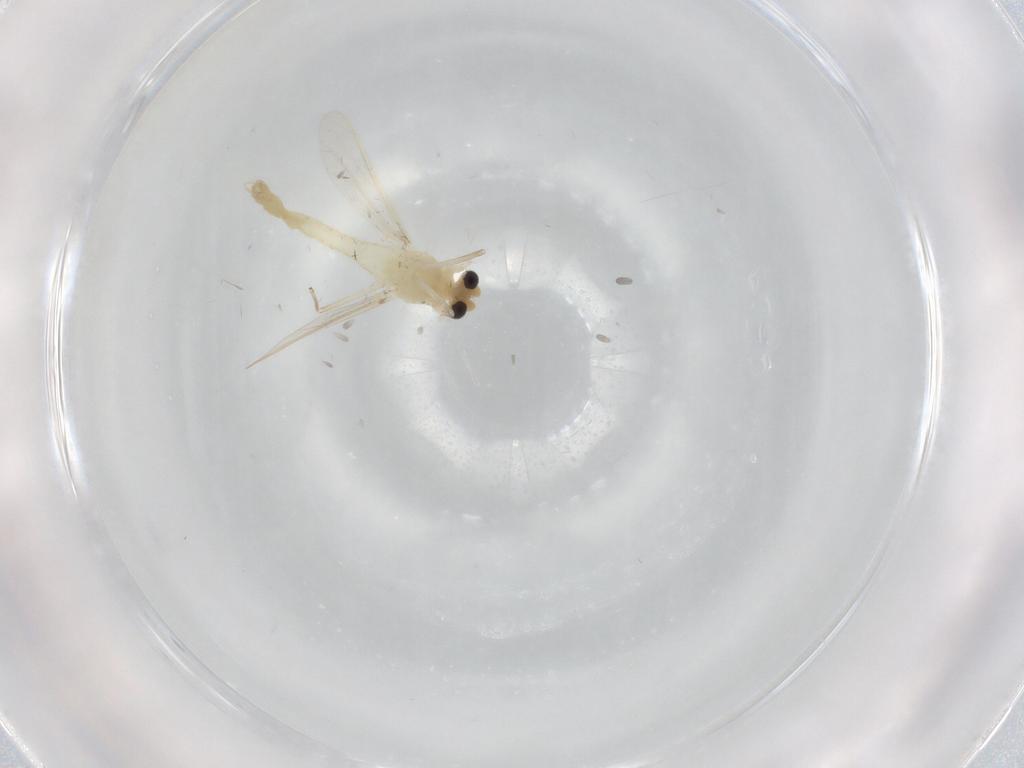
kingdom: Animalia
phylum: Arthropoda
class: Insecta
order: Diptera
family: Chironomidae
